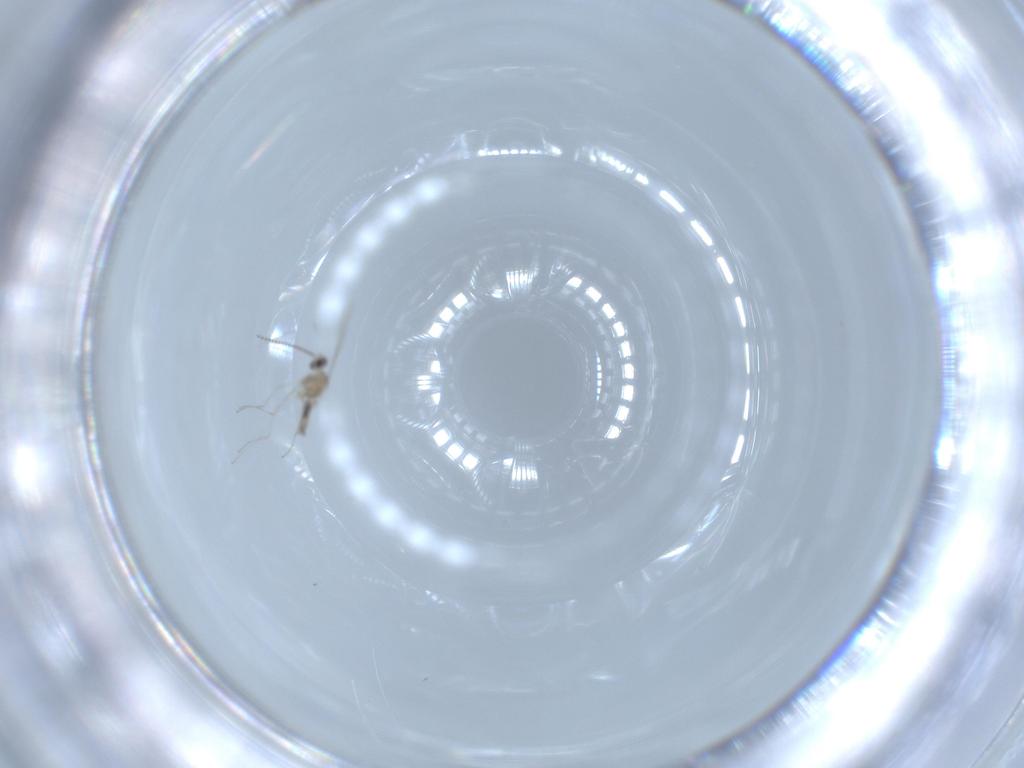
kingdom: Animalia
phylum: Arthropoda
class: Insecta
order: Diptera
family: Cecidomyiidae
